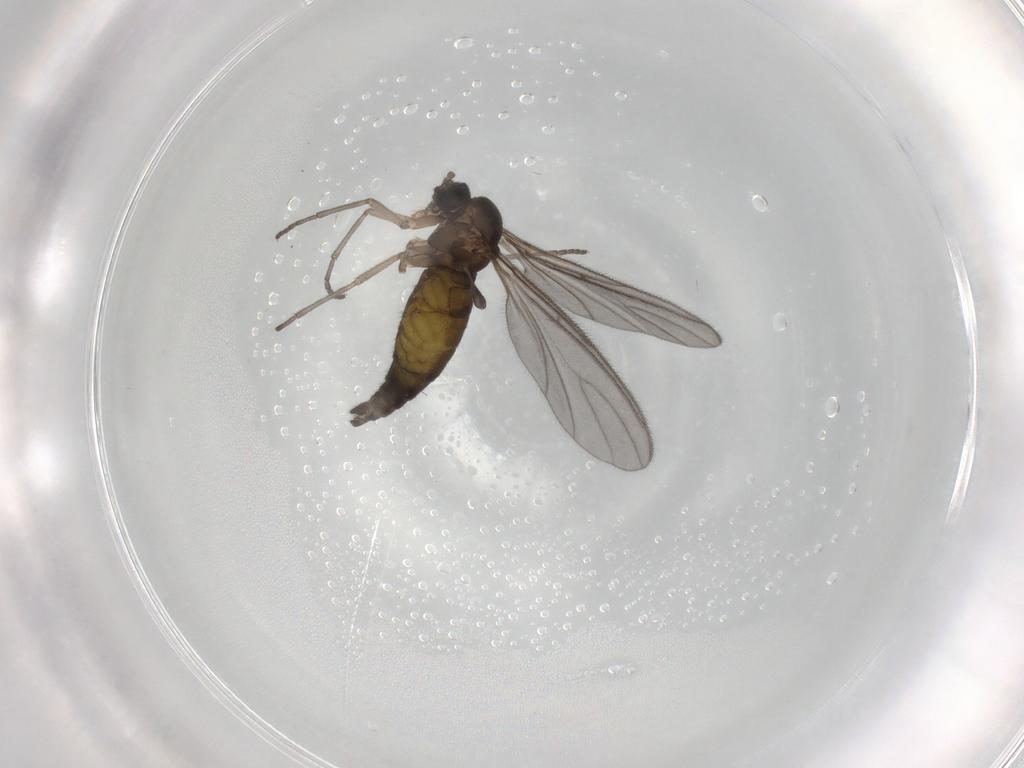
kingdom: Animalia
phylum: Arthropoda
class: Insecta
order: Diptera
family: Sciaridae
